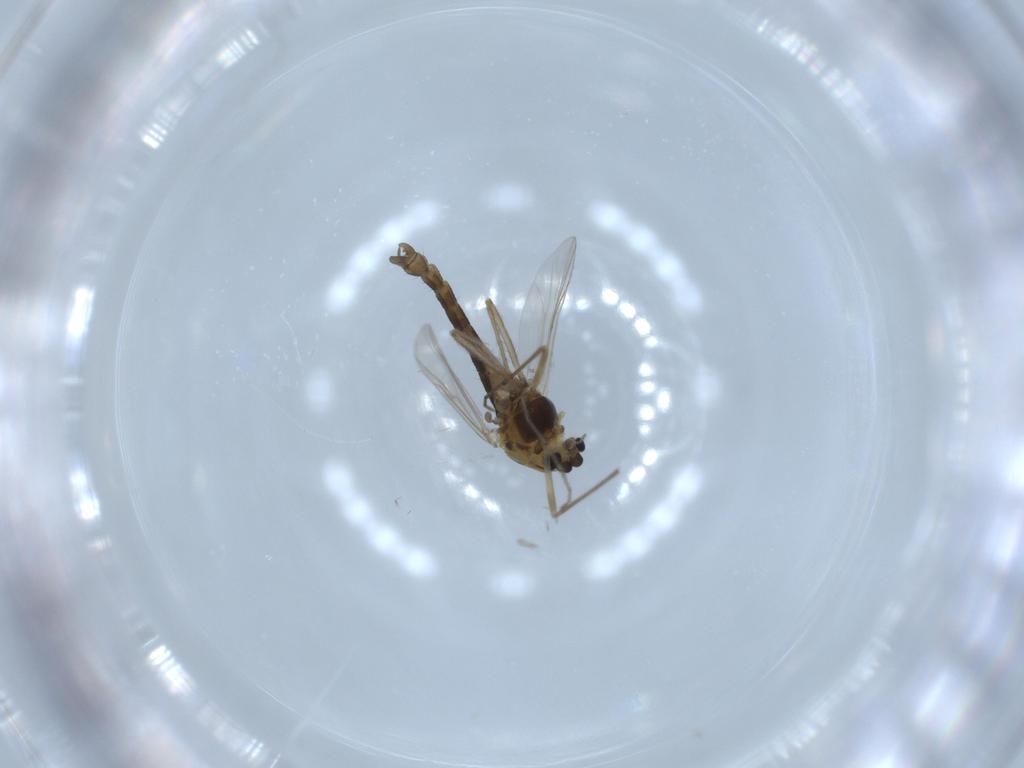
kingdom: Animalia
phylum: Arthropoda
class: Insecta
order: Diptera
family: Chironomidae
